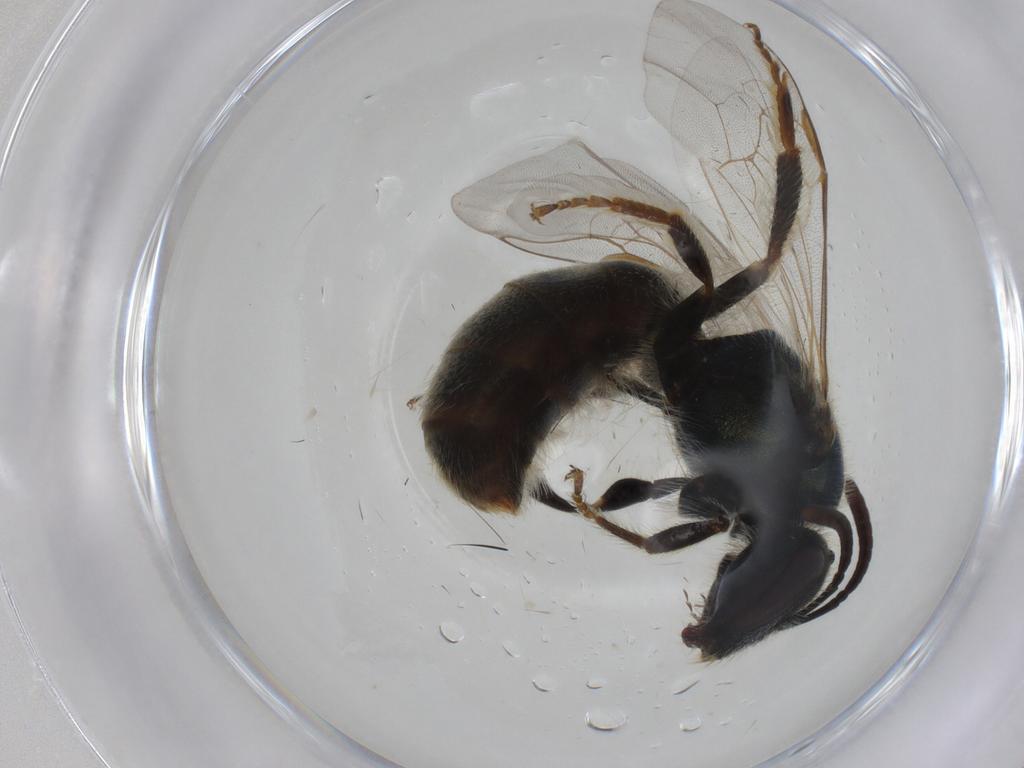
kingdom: Animalia
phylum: Arthropoda
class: Insecta
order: Hymenoptera
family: Halictidae
